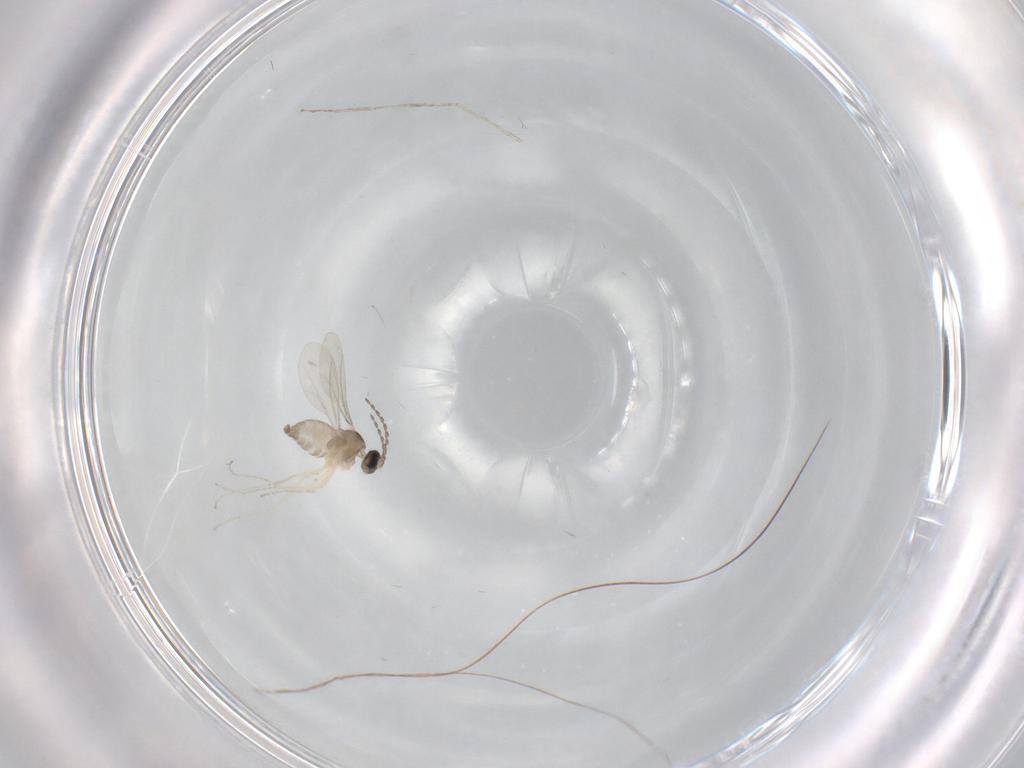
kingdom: Animalia
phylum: Arthropoda
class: Insecta
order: Diptera
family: Cecidomyiidae
